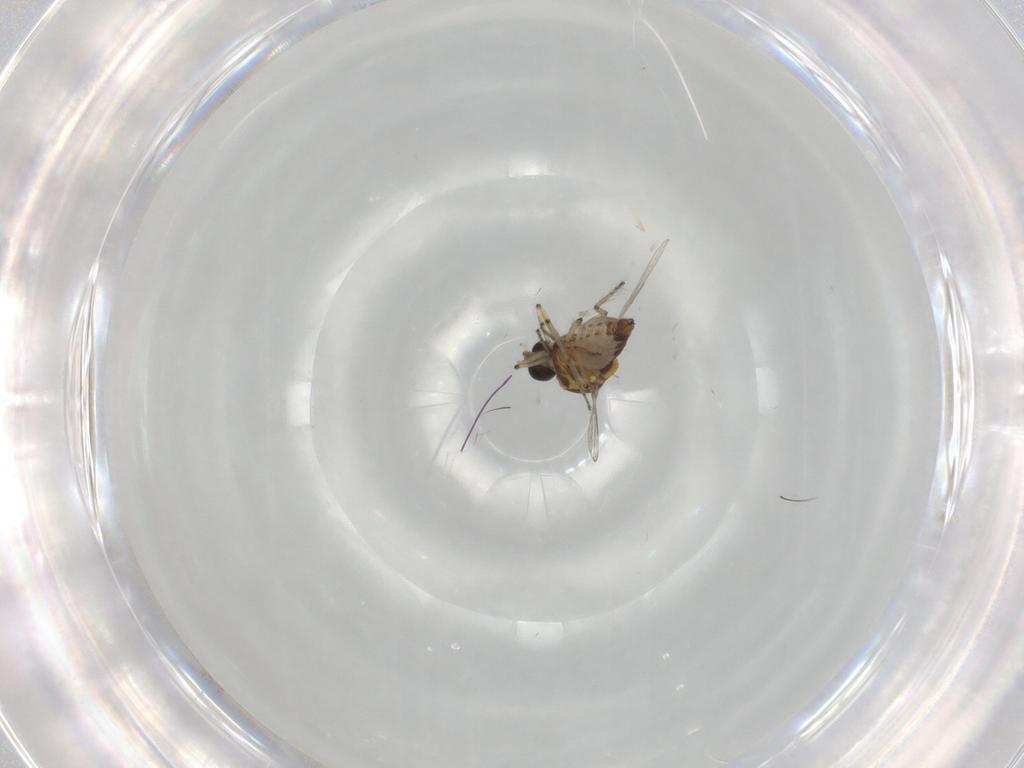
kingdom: Animalia
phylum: Arthropoda
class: Insecta
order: Diptera
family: Ceratopogonidae
